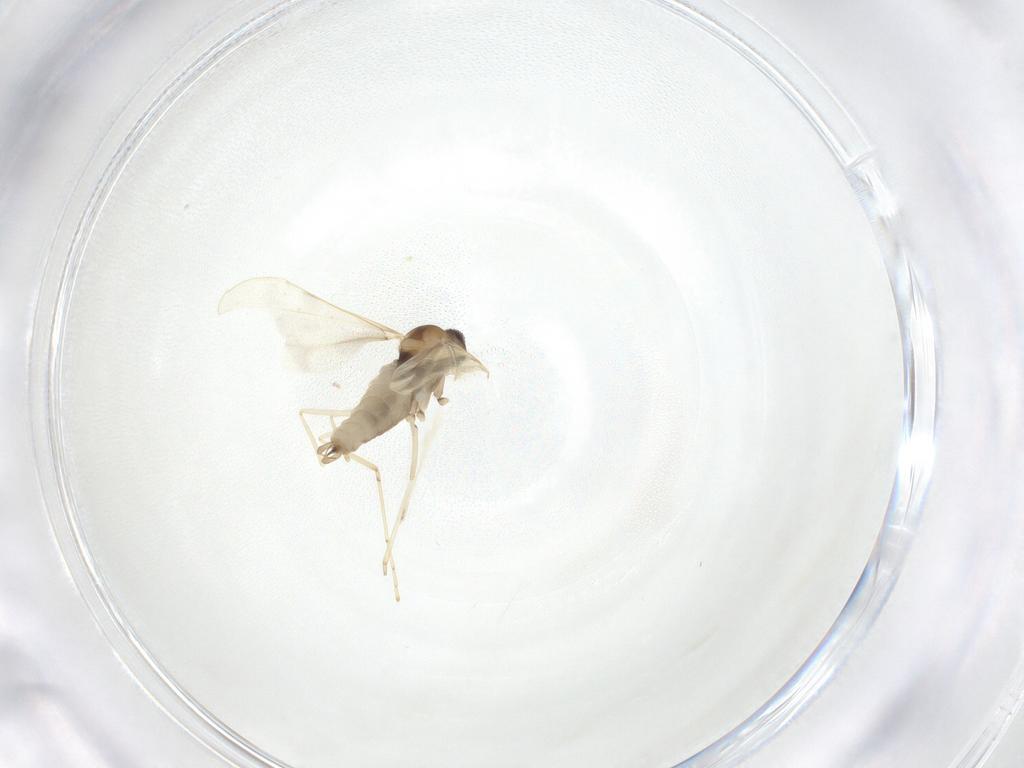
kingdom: Animalia
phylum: Arthropoda
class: Insecta
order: Diptera
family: Cecidomyiidae
